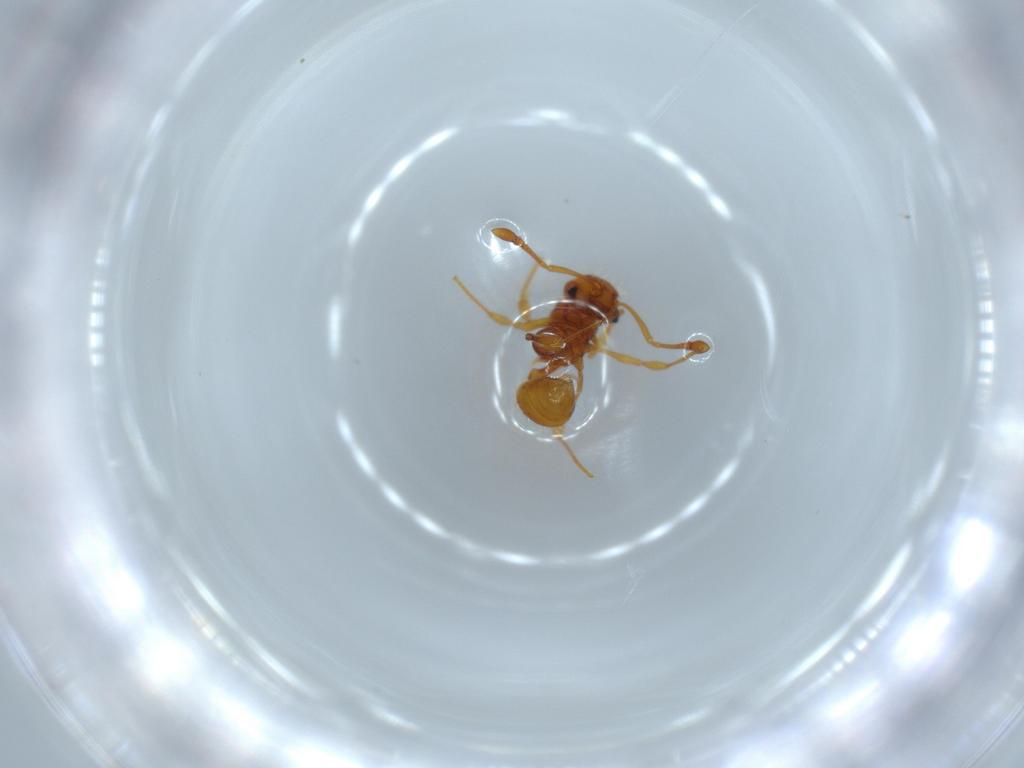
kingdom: Animalia
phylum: Arthropoda
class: Insecta
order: Hymenoptera
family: Formicidae
